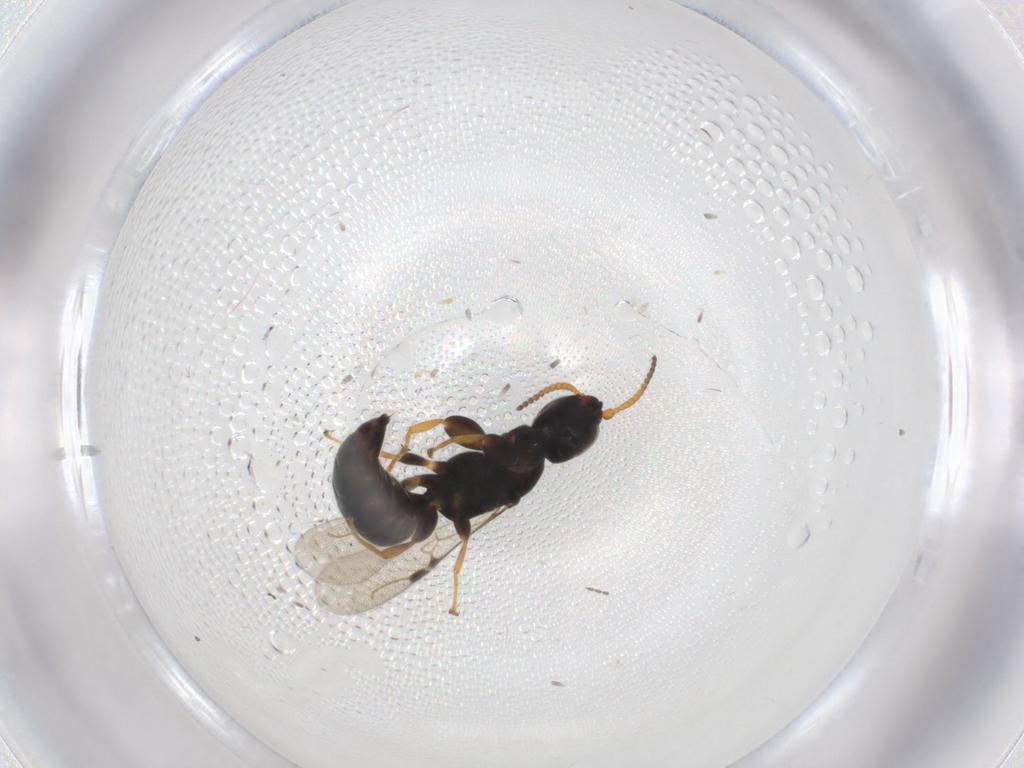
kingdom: Animalia
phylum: Arthropoda
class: Insecta
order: Hymenoptera
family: Bethylidae
